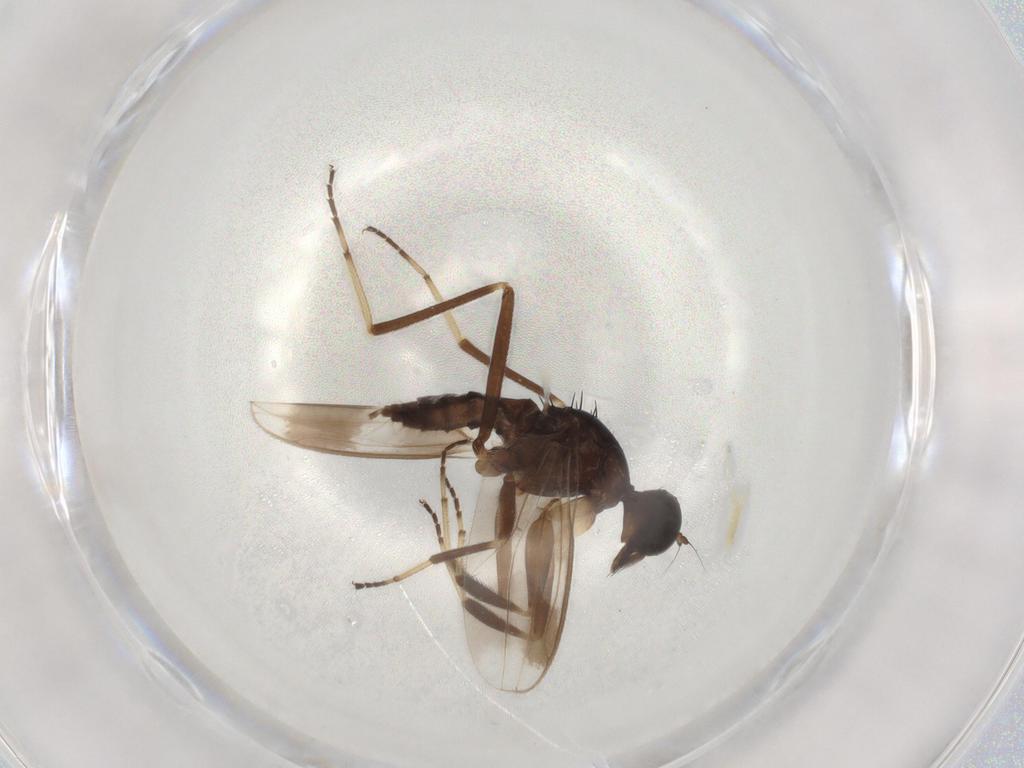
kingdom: Animalia
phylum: Arthropoda
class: Insecta
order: Diptera
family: Hybotidae
